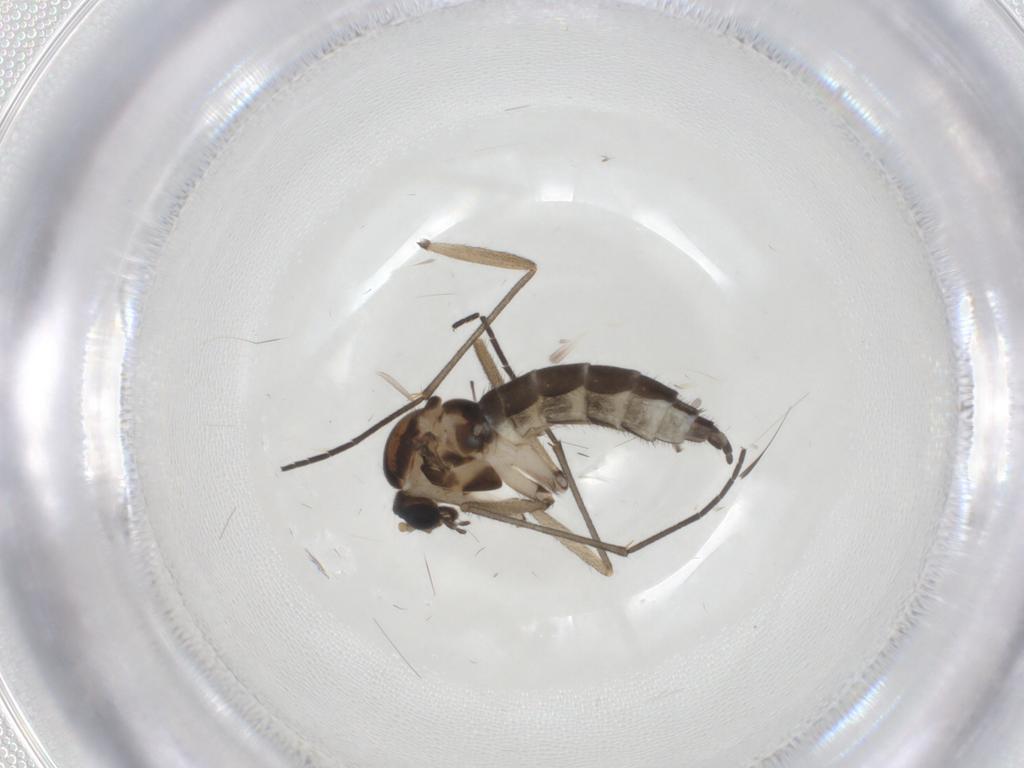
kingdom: Animalia
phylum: Arthropoda
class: Insecta
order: Diptera
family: Sciaridae
